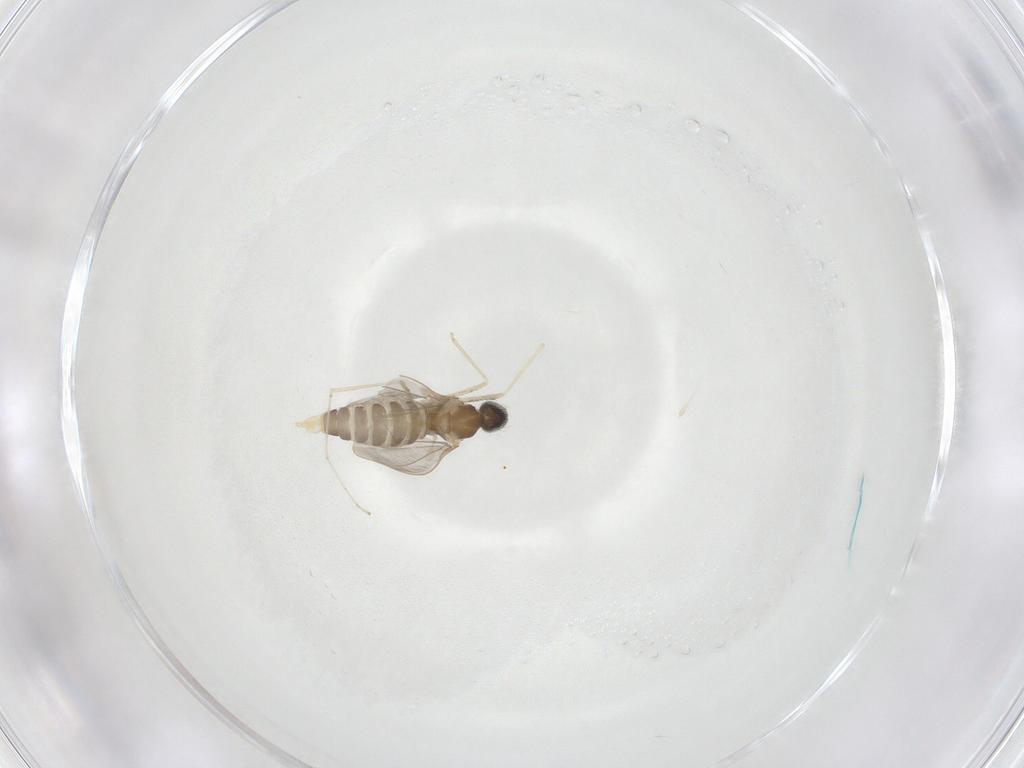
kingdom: Animalia
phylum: Arthropoda
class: Insecta
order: Diptera
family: Cecidomyiidae
